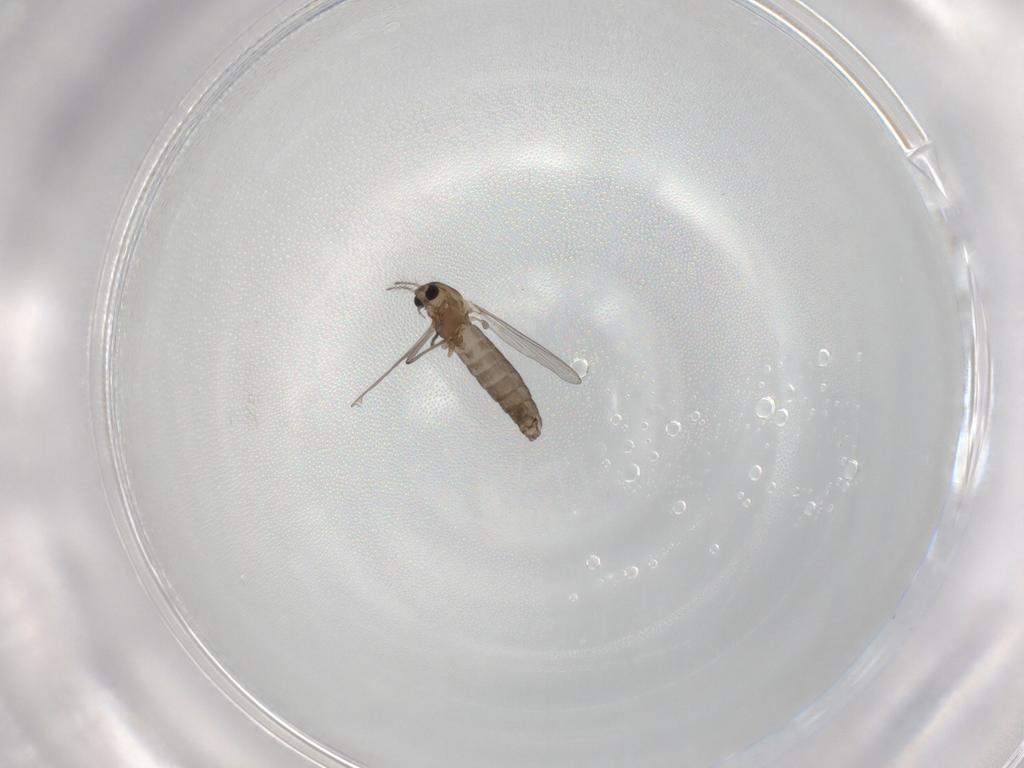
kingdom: Animalia
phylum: Arthropoda
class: Insecta
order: Diptera
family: Chironomidae
